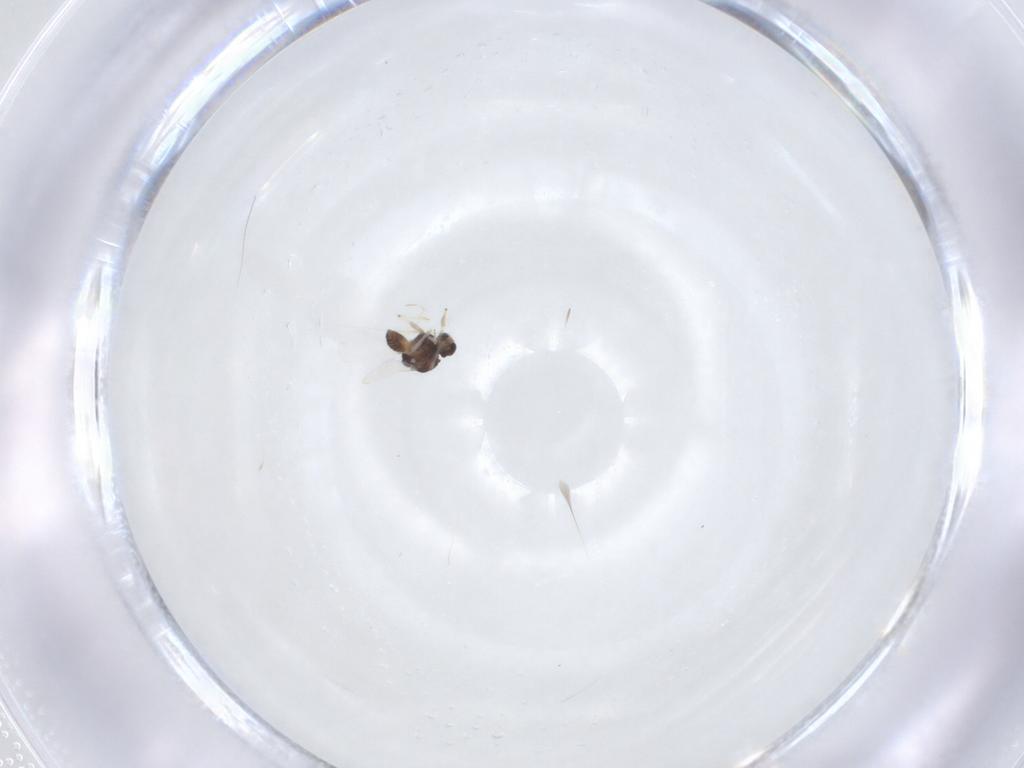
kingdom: Animalia
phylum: Arthropoda
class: Insecta
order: Diptera
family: Chironomidae
